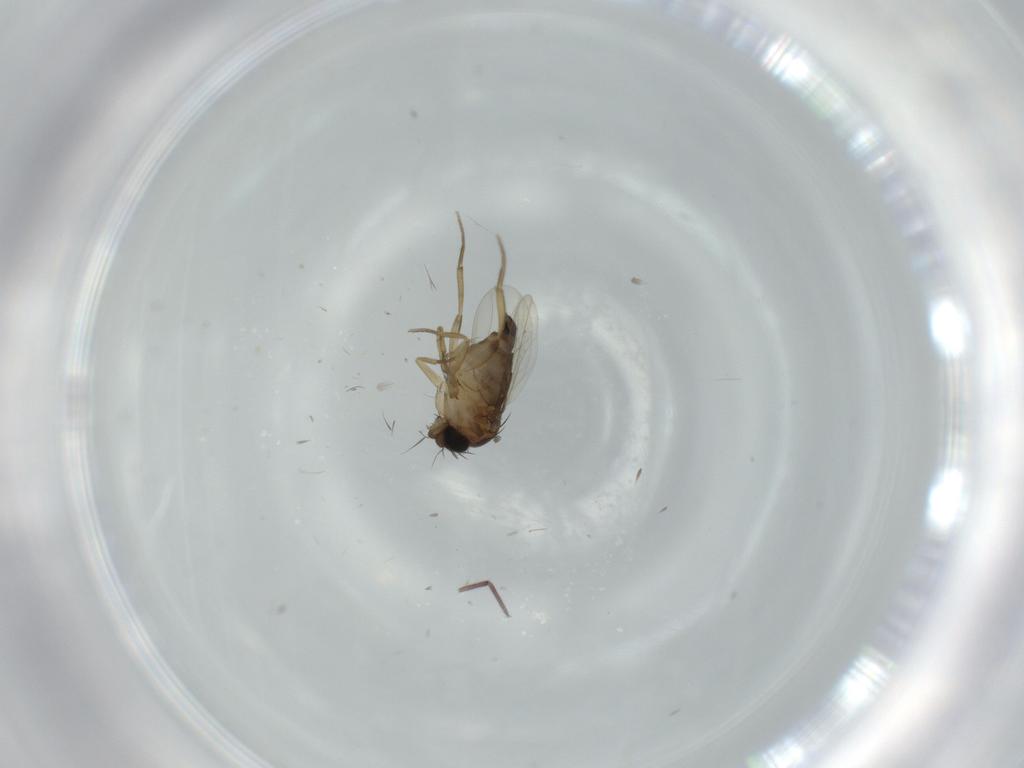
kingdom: Animalia
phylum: Arthropoda
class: Insecta
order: Diptera
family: Phoridae
